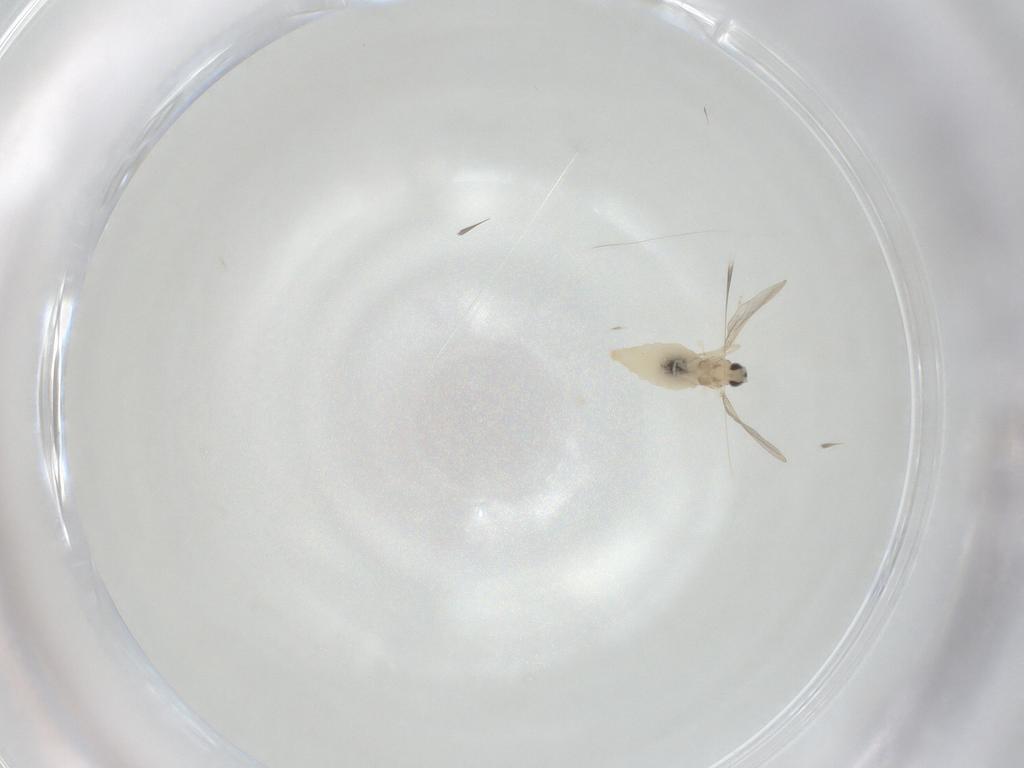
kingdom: Animalia
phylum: Arthropoda
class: Insecta
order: Diptera
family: Cecidomyiidae
